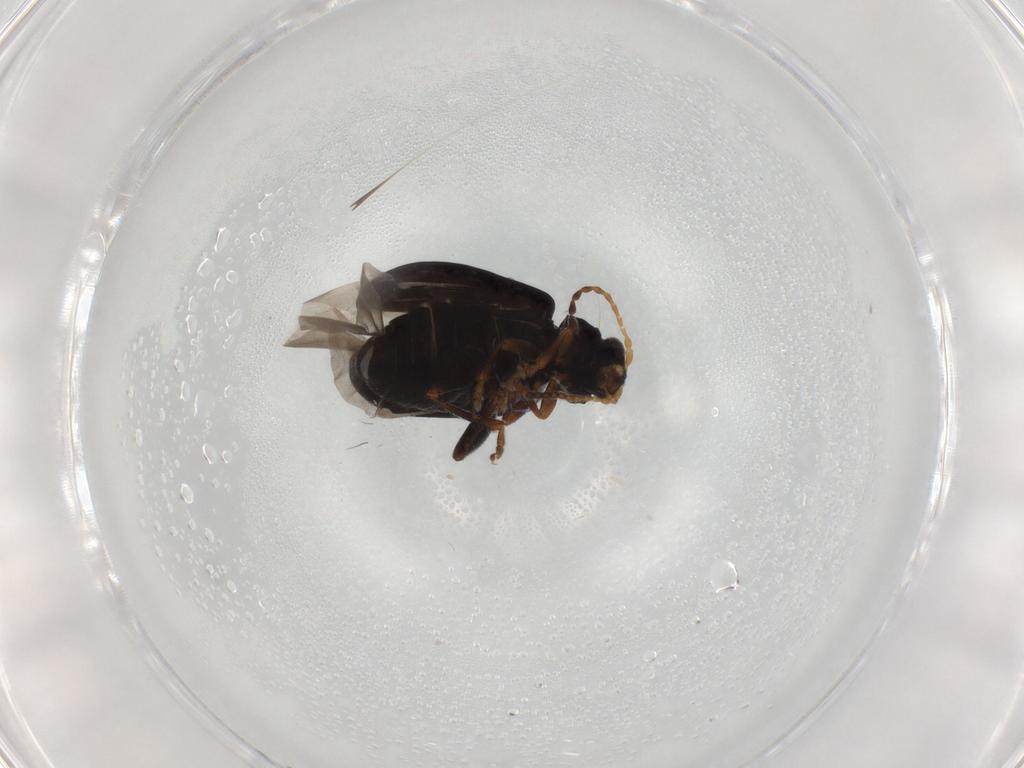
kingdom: Animalia
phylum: Arthropoda
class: Insecta
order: Coleoptera
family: Chrysomelidae
